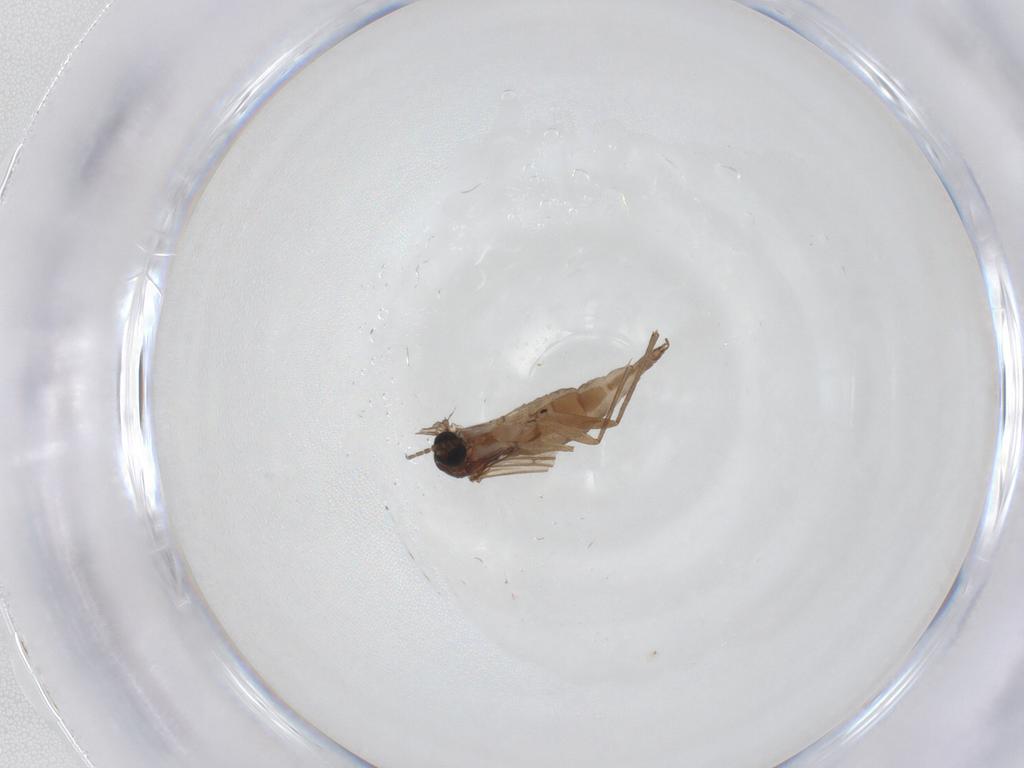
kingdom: Animalia
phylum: Arthropoda
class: Insecta
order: Diptera
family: Sciaridae
